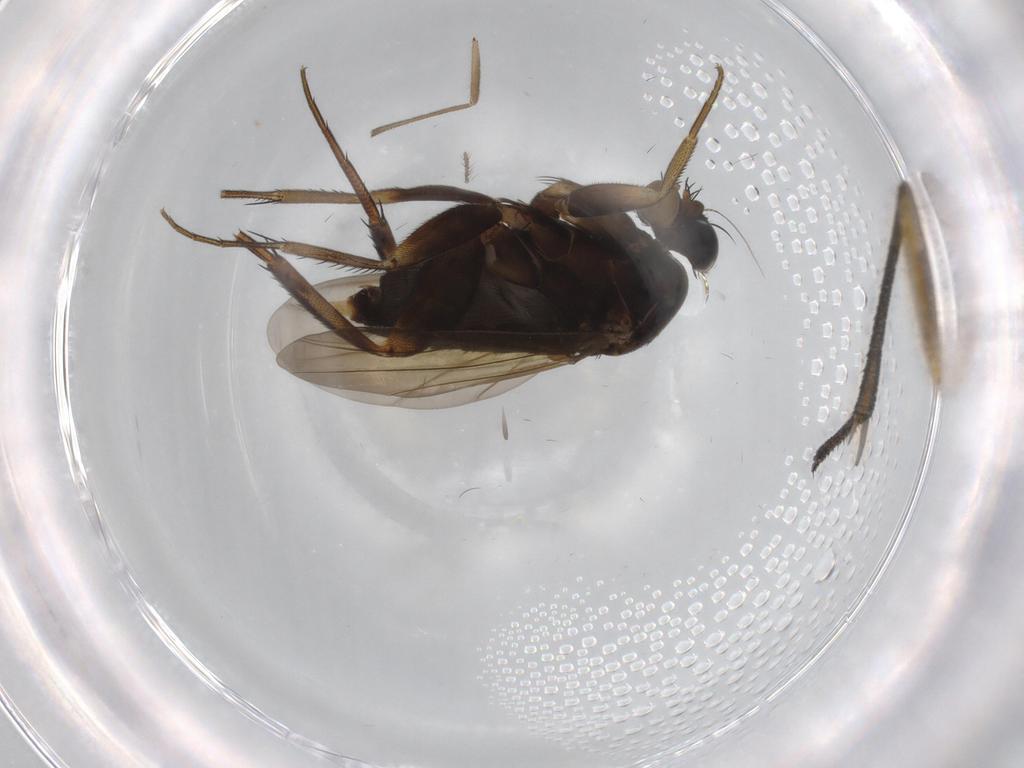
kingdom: Animalia
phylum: Arthropoda
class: Insecta
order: Diptera
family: Phoridae
